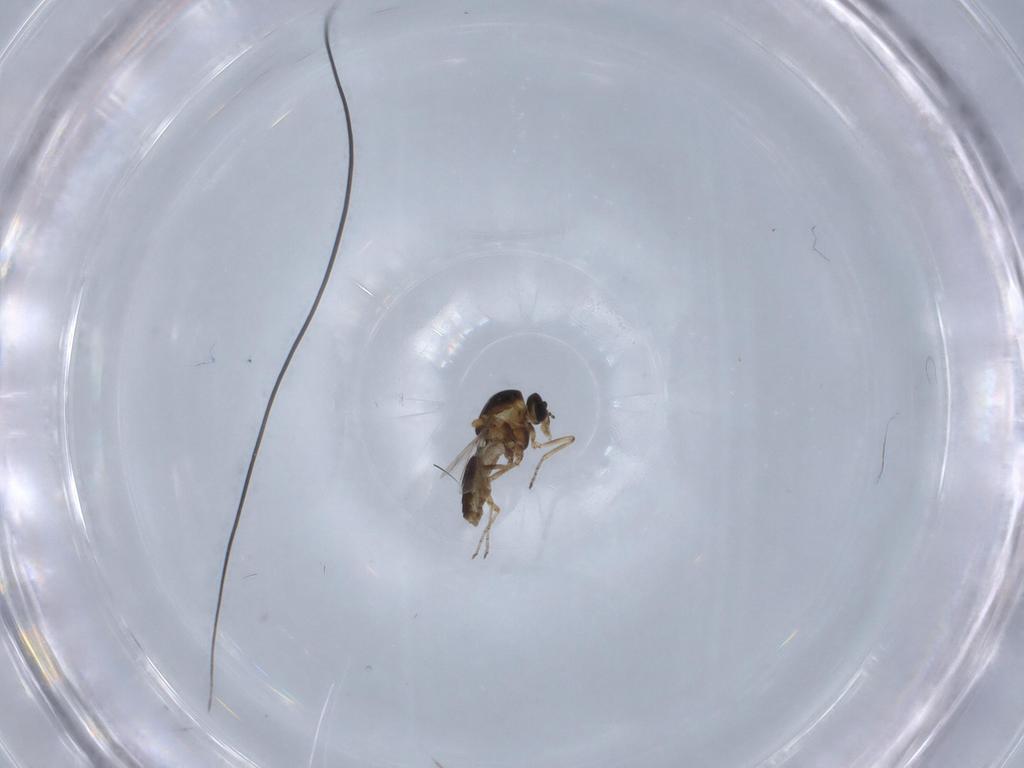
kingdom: Animalia
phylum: Arthropoda
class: Insecta
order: Diptera
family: Ceratopogonidae
